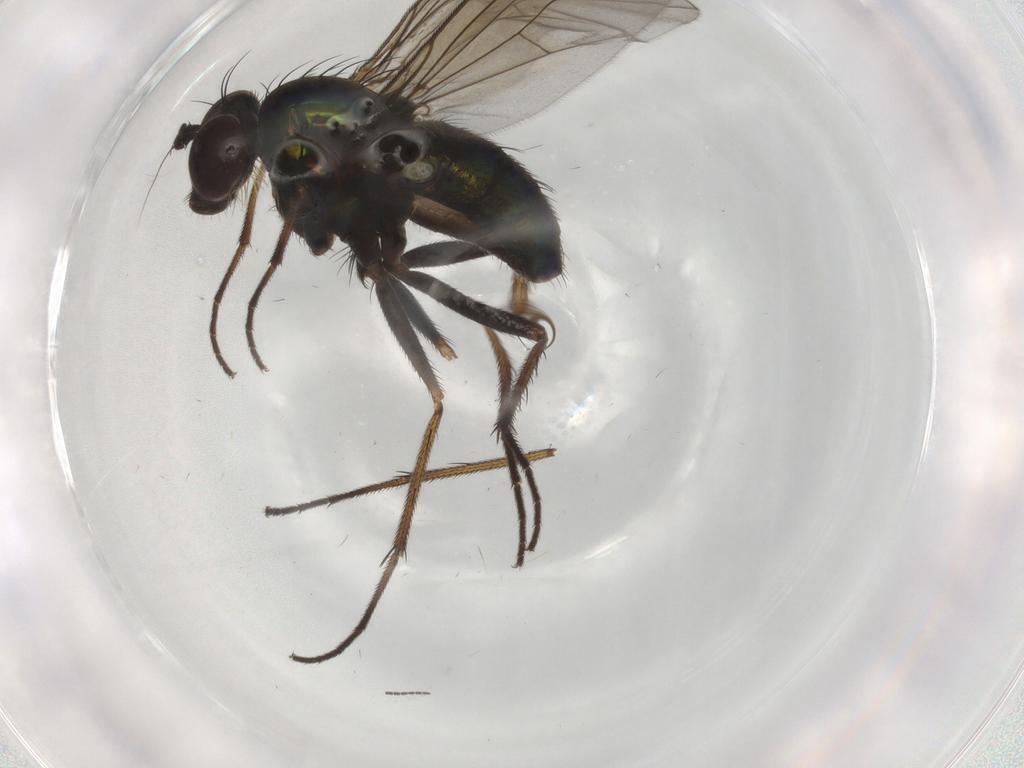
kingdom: Animalia
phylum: Arthropoda
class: Insecta
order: Diptera
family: Dolichopodidae
